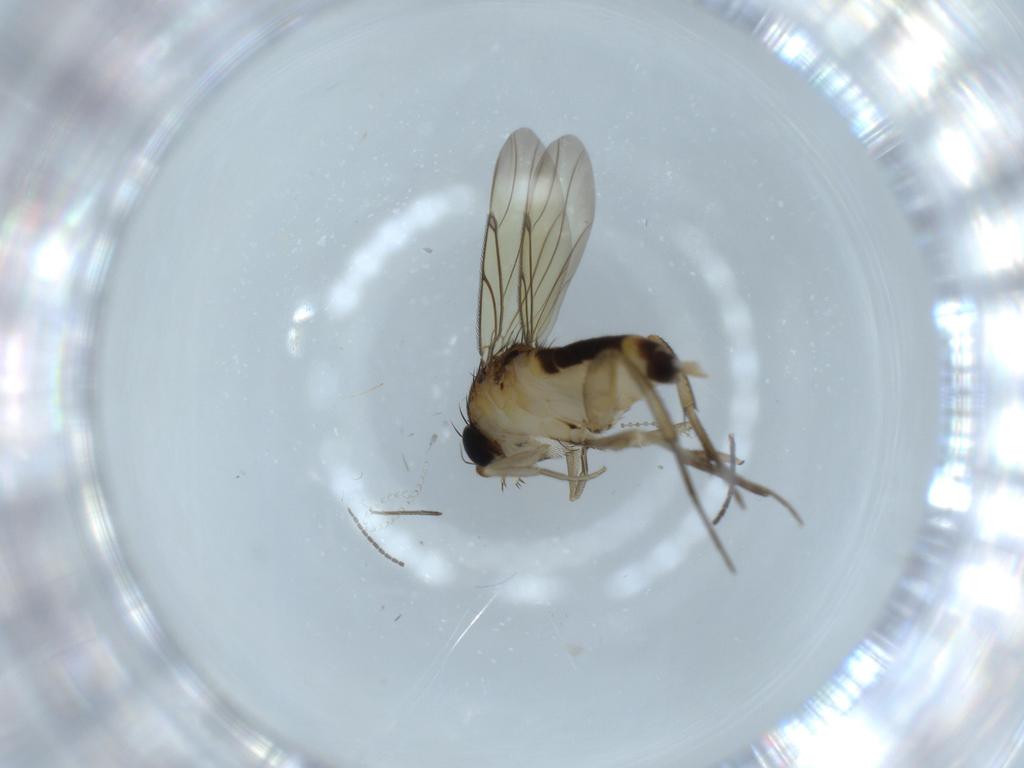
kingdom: Animalia
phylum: Arthropoda
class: Insecta
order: Diptera
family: Sciaridae
